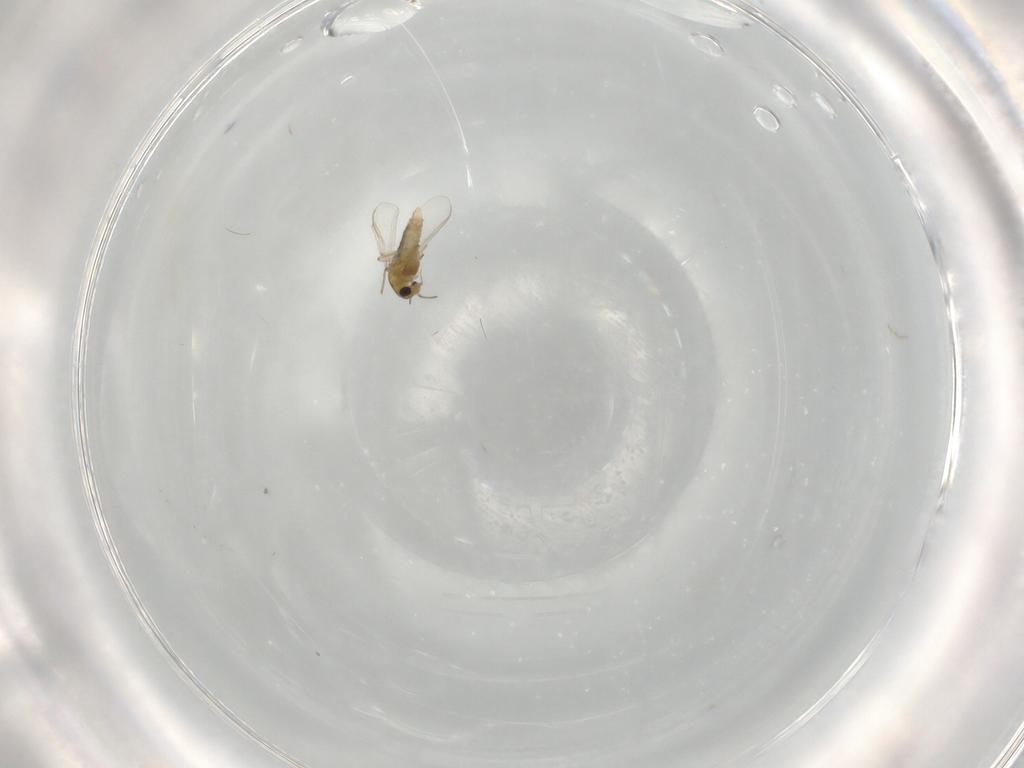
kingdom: Animalia
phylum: Arthropoda
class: Insecta
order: Diptera
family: Chironomidae
